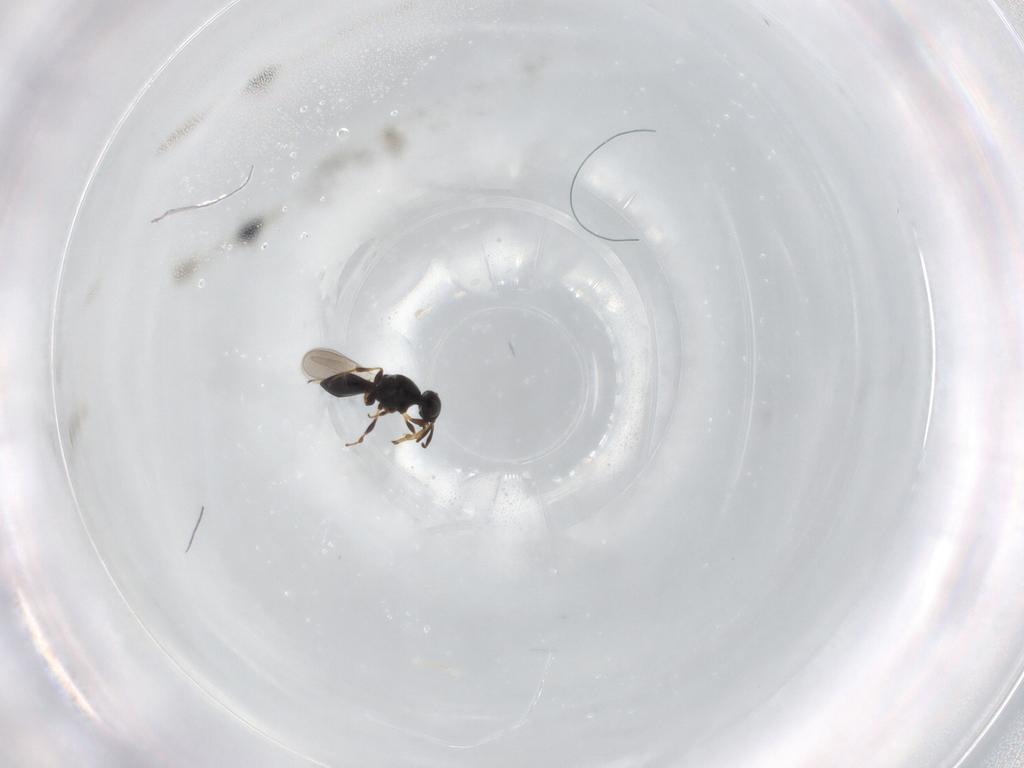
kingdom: Animalia
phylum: Arthropoda
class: Insecta
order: Hymenoptera
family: Platygastridae
